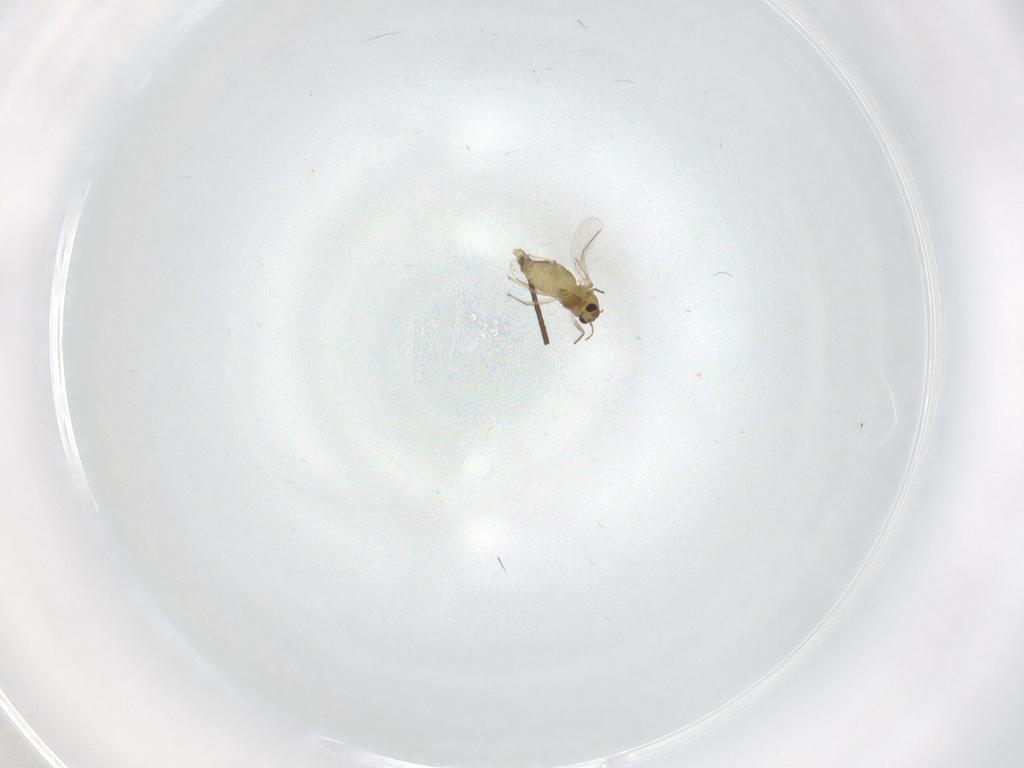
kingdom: Animalia
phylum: Arthropoda
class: Insecta
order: Diptera
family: Chironomidae
